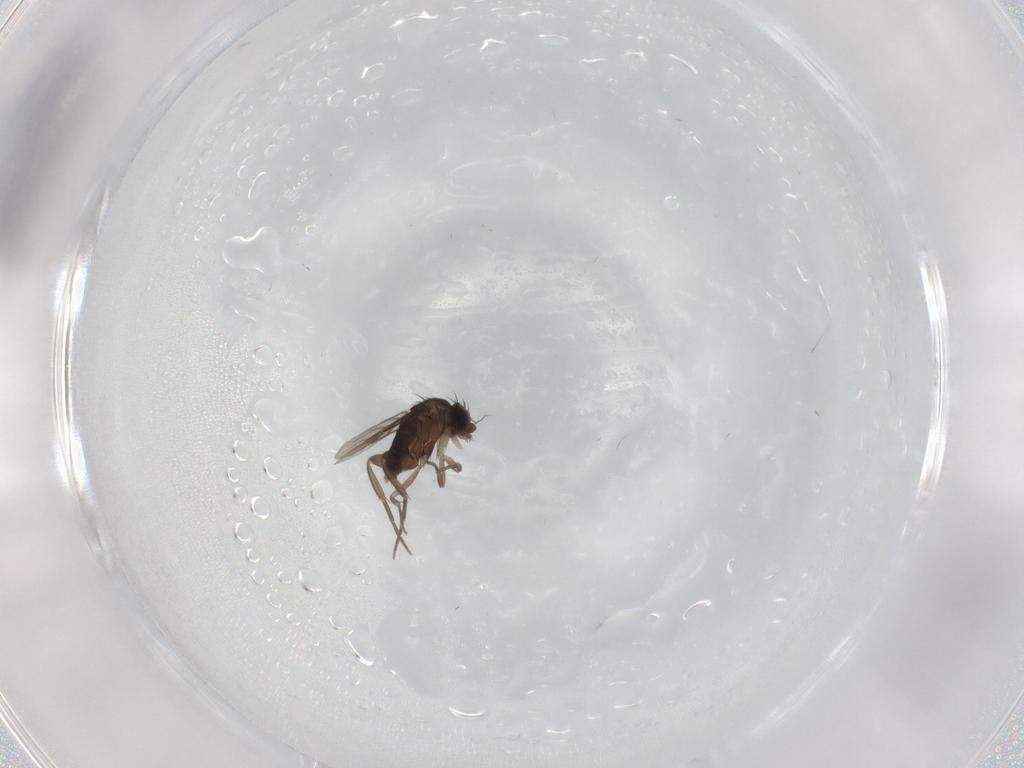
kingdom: Animalia
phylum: Arthropoda
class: Insecta
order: Diptera
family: Phoridae
